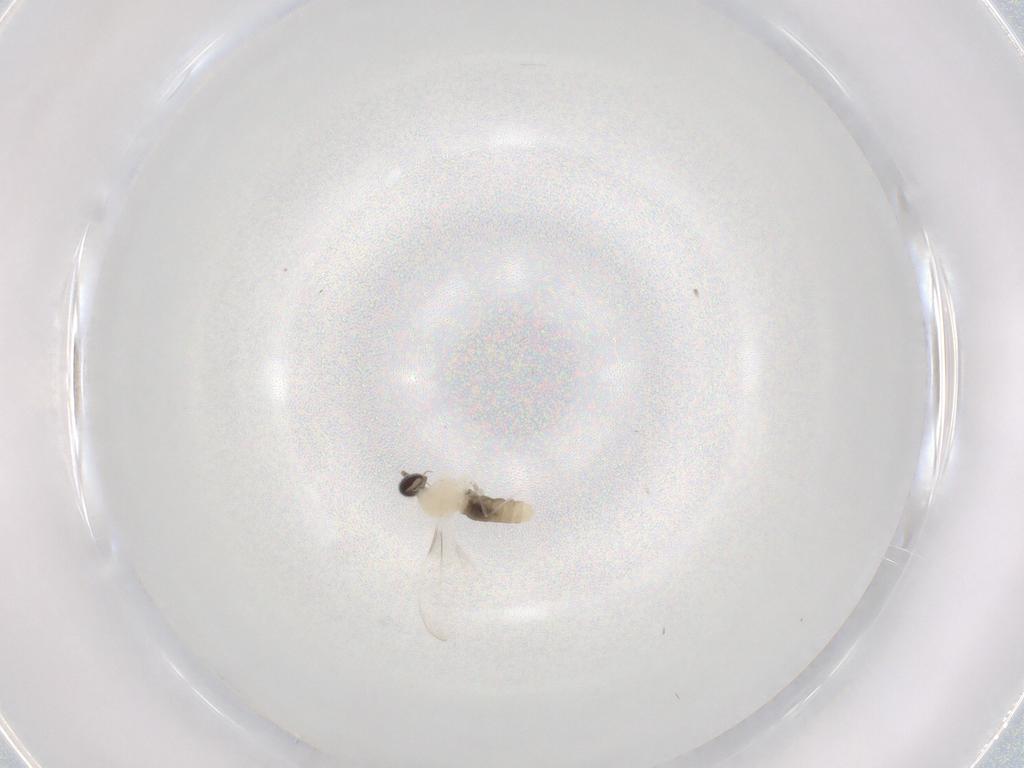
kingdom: Animalia
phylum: Arthropoda
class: Insecta
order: Diptera
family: Cecidomyiidae
